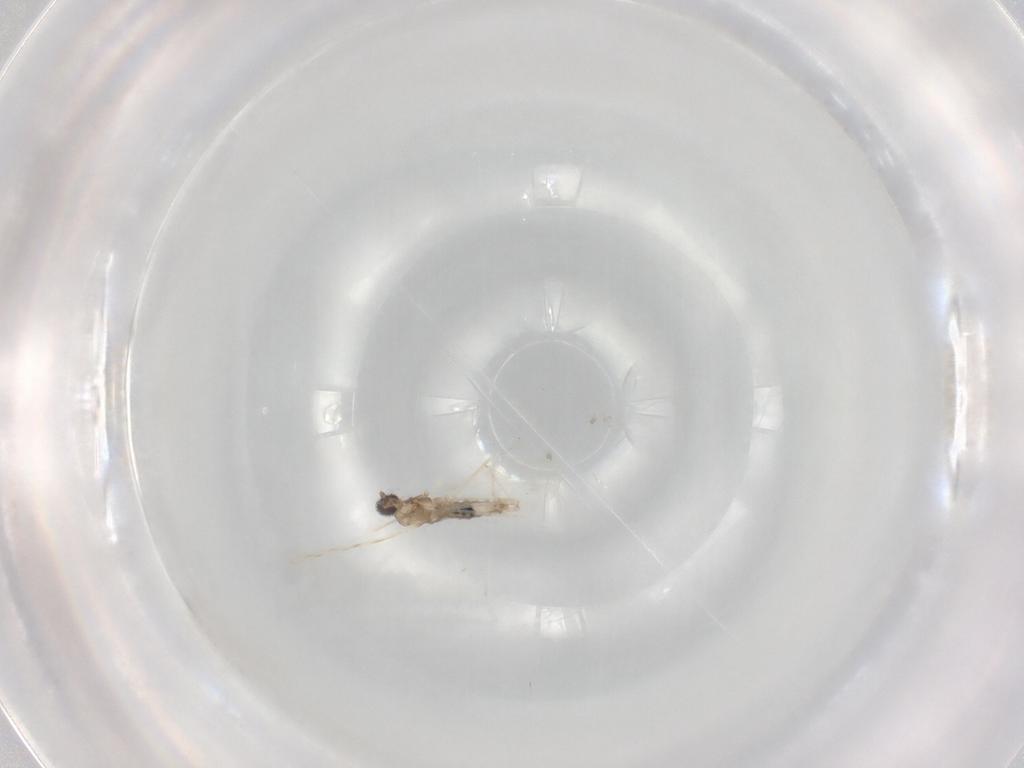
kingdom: Animalia
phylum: Arthropoda
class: Insecta
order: Diptera
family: Cecidomyiidae
